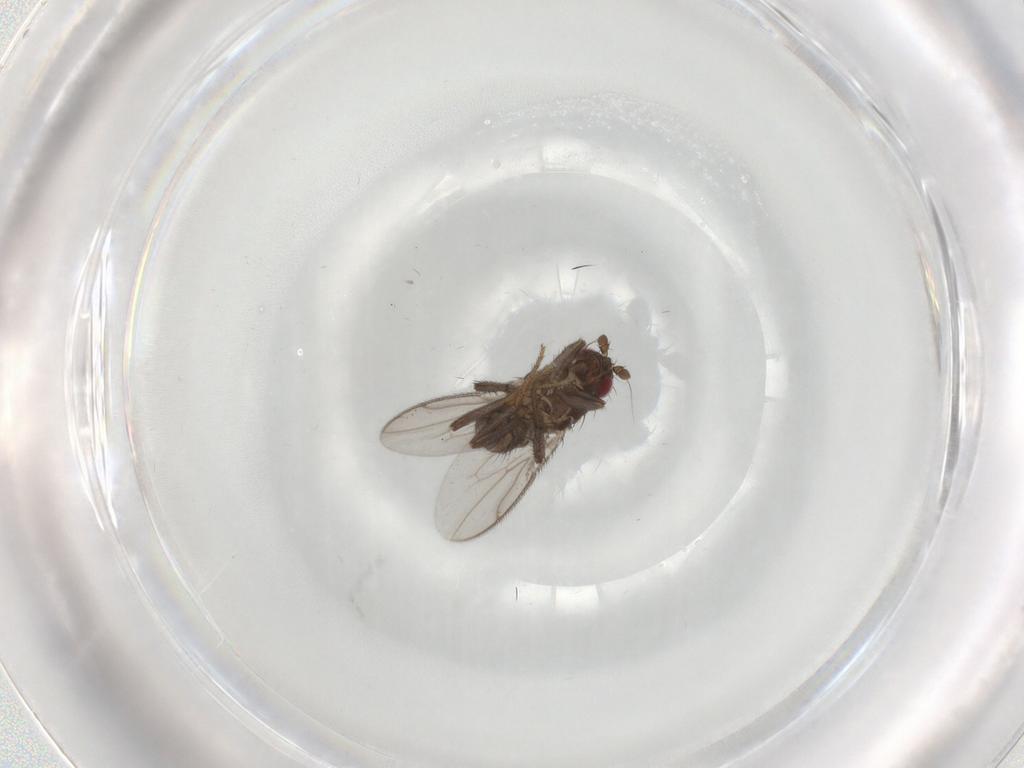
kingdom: Animalia
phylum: Arthropoda
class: Insecta
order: Diptera
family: Sphaeroceridae
